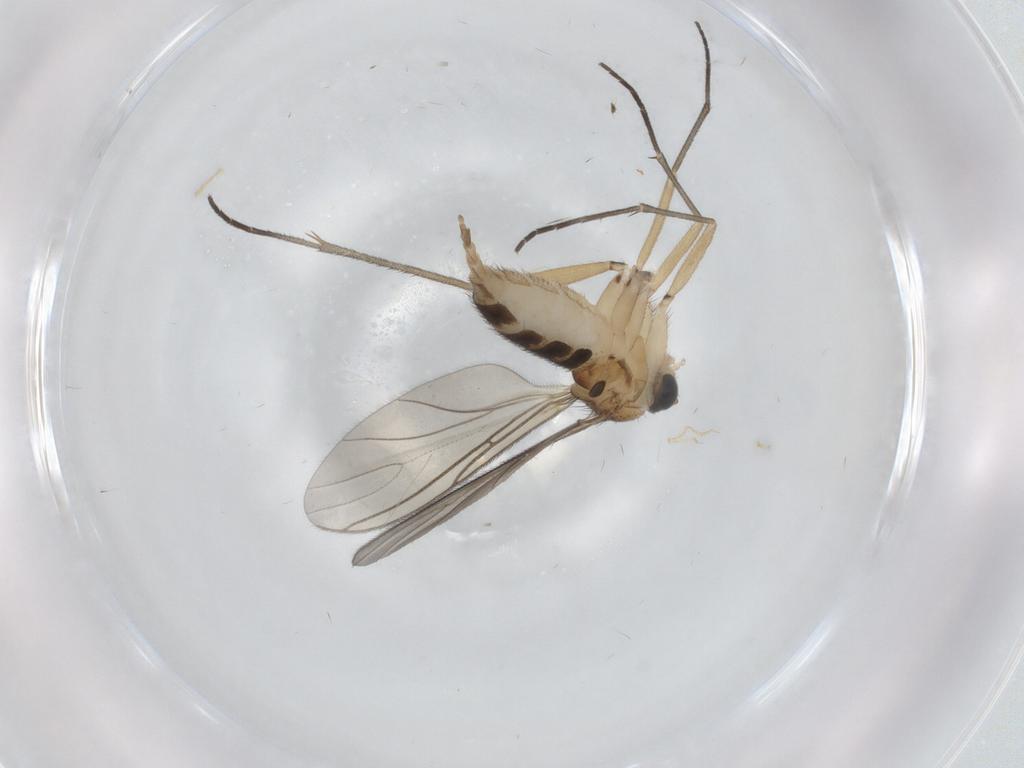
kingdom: Animalia
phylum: Arthropoda
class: Insecta
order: Diptera
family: Sciaridae
